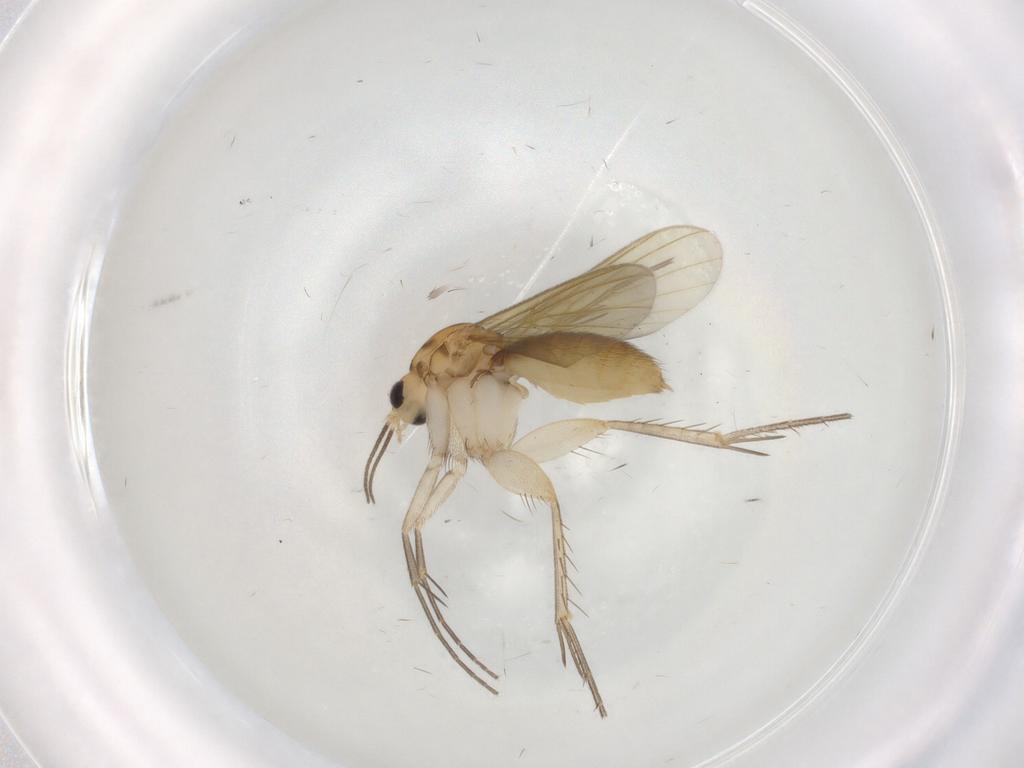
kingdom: Animalia
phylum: Arthropoda
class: Insecta
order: Diptera
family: Mycetophilidae
